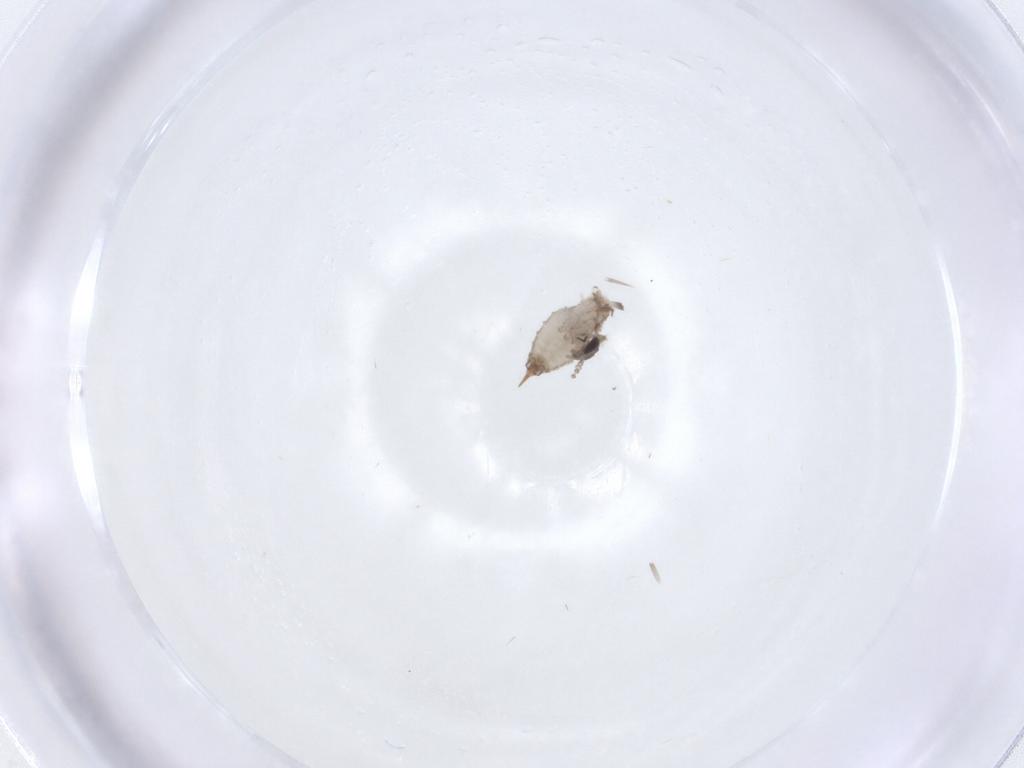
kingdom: Animalia
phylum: Arthropoda
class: Insecta
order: Diptera
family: Psychodidae
